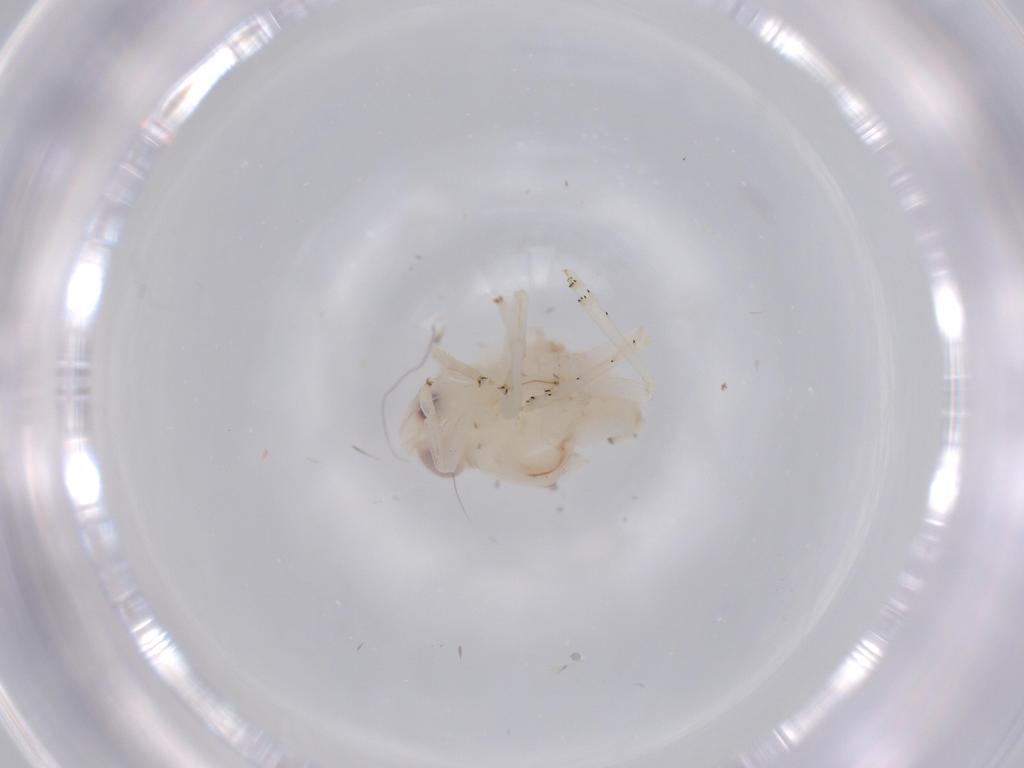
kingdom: Animalia
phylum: Arthropoda
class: Insecta
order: Hemiptera
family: Nogodinidae
